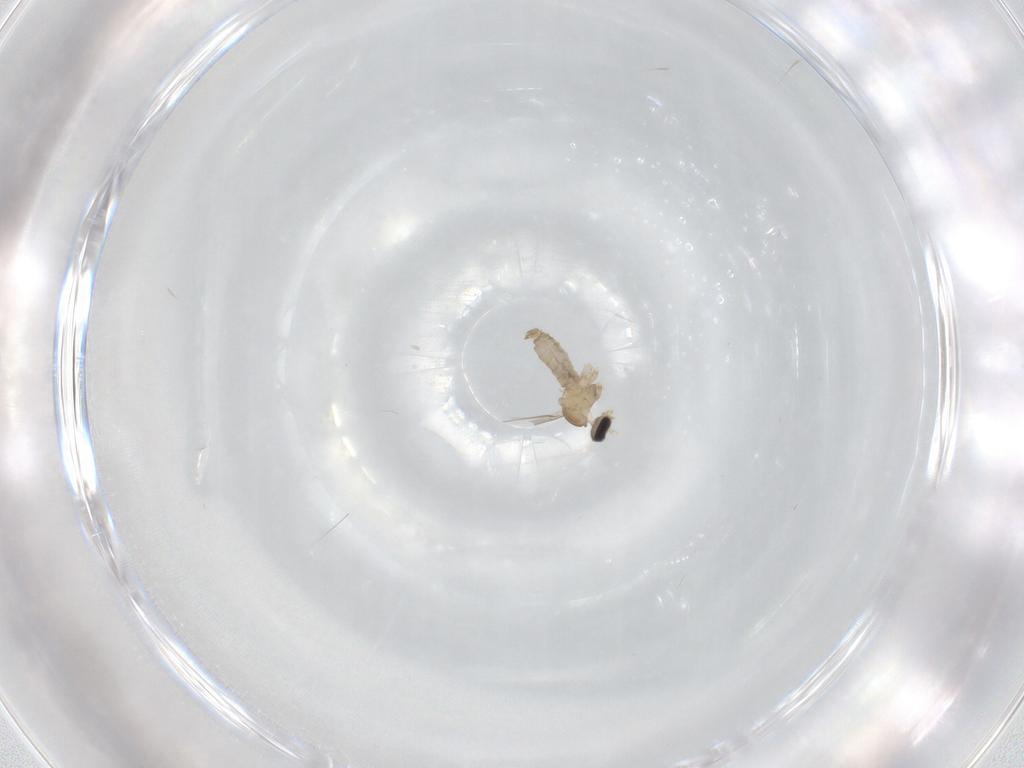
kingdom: Animalia
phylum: Arthropoda
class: Insecta
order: Diptera
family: Cecidomyiidae
